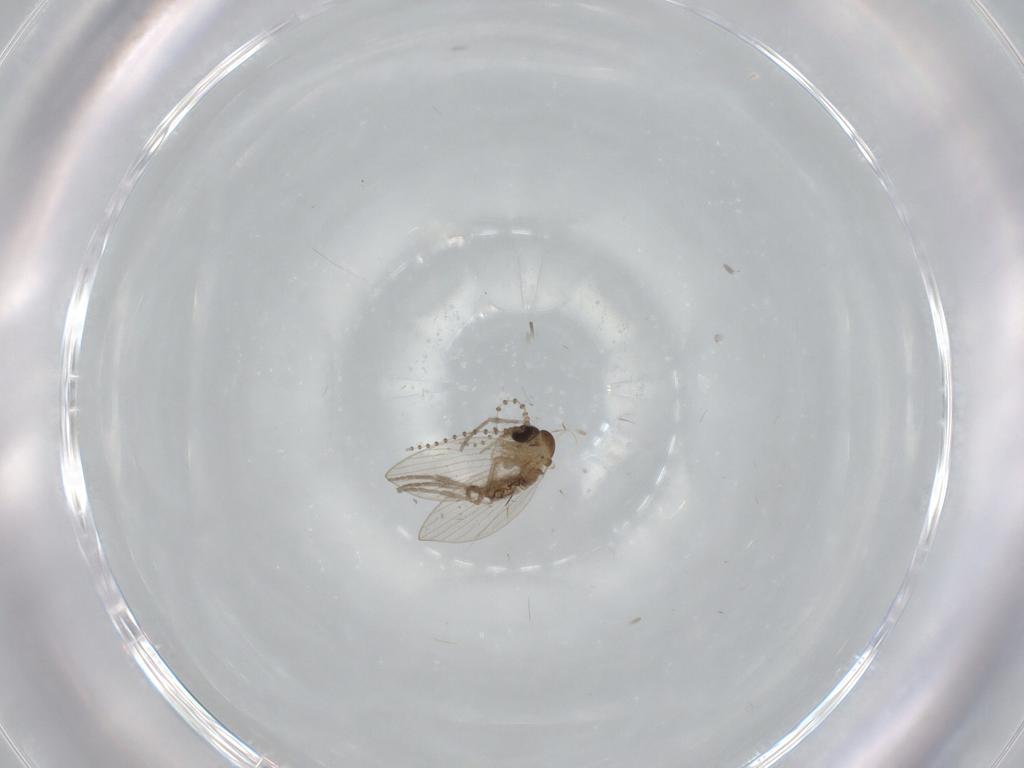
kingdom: Animalia
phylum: Arthropoda
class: Insecta
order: Diptera
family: Psychodidae
